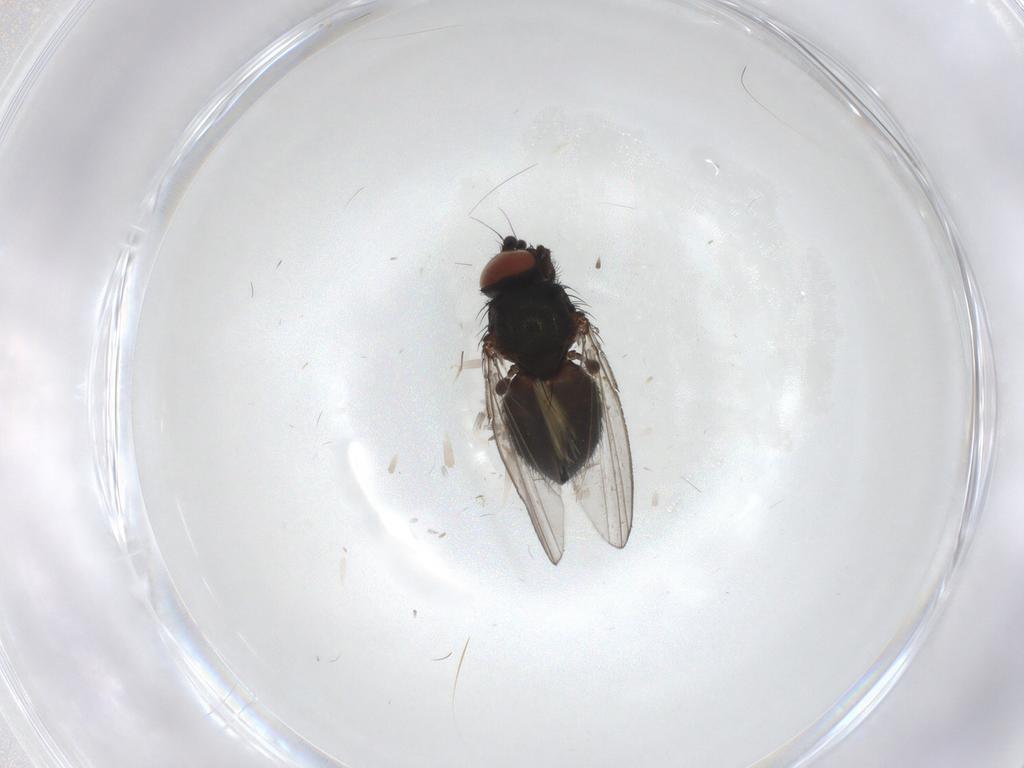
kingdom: Animalia
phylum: Arthropoda
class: Insecta
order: Diptera
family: Milichiidae
